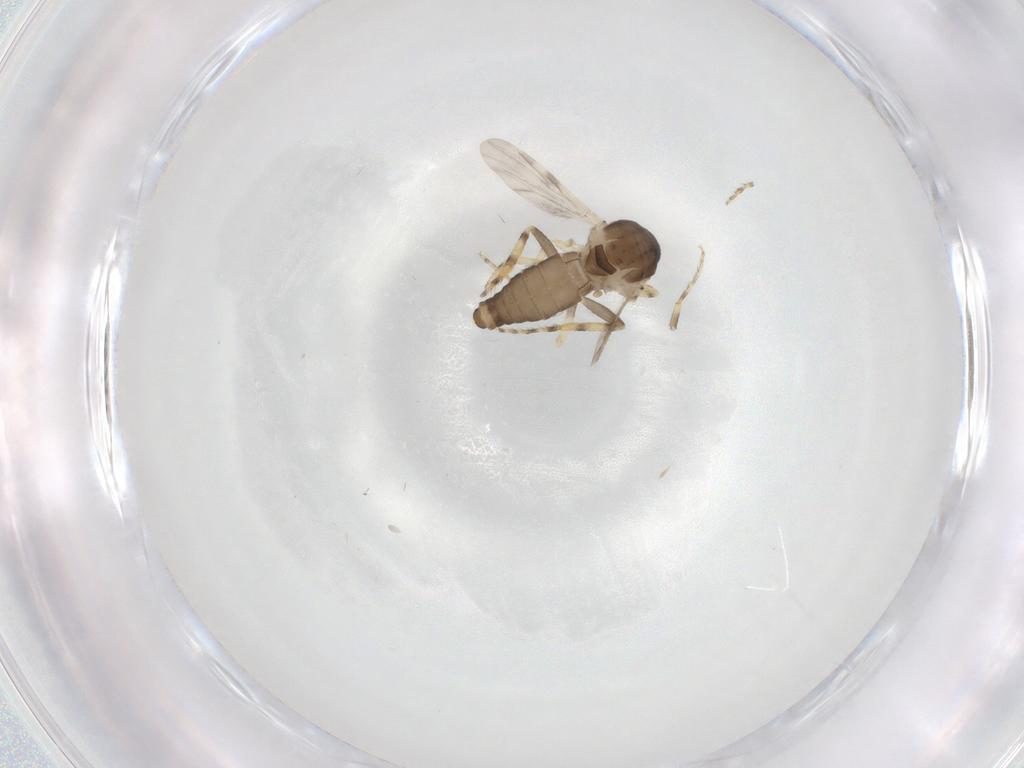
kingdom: Animalia
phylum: Arthropoda
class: Insecta
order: Diptera
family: Ceratopogonidae
